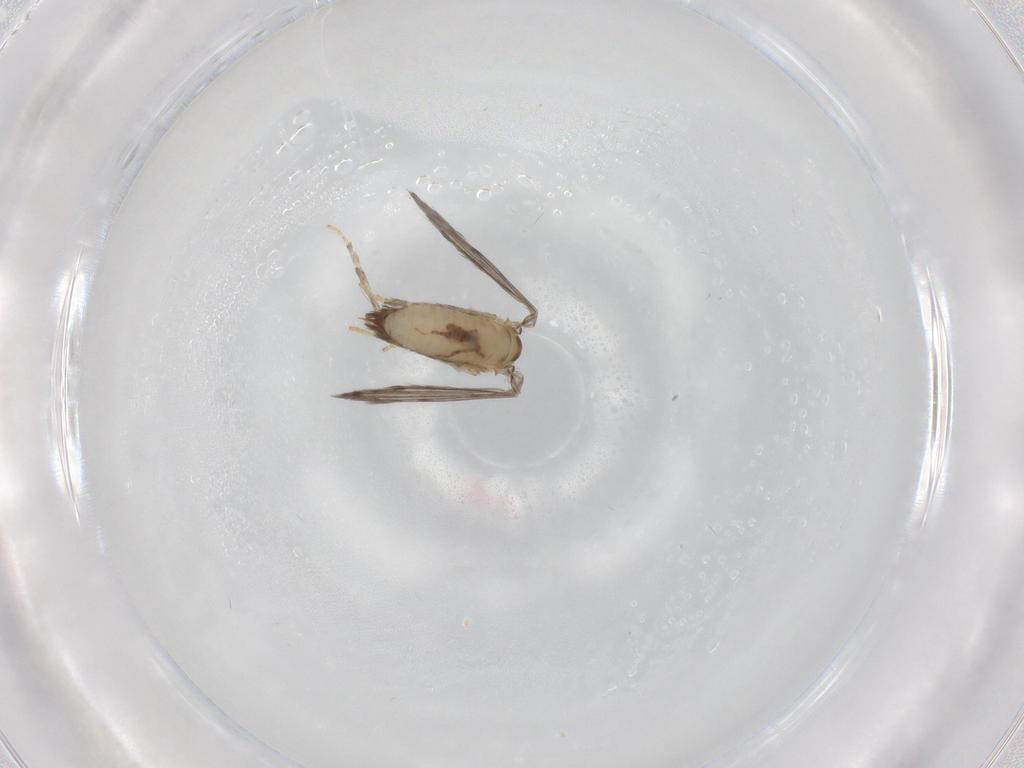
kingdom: Animalia
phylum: Arthropoda
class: Insecta
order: Diptera
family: Psychodidae
